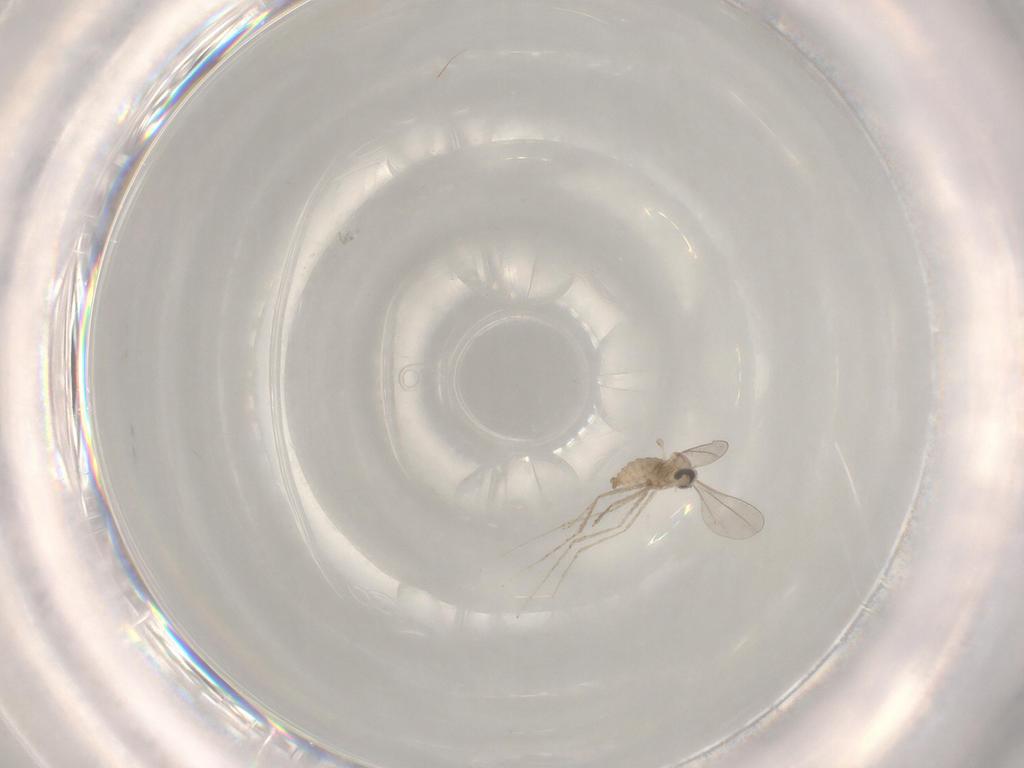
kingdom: Animalia
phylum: Arthropoda
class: Insecta
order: Diptera
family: Cecidomyiidae
